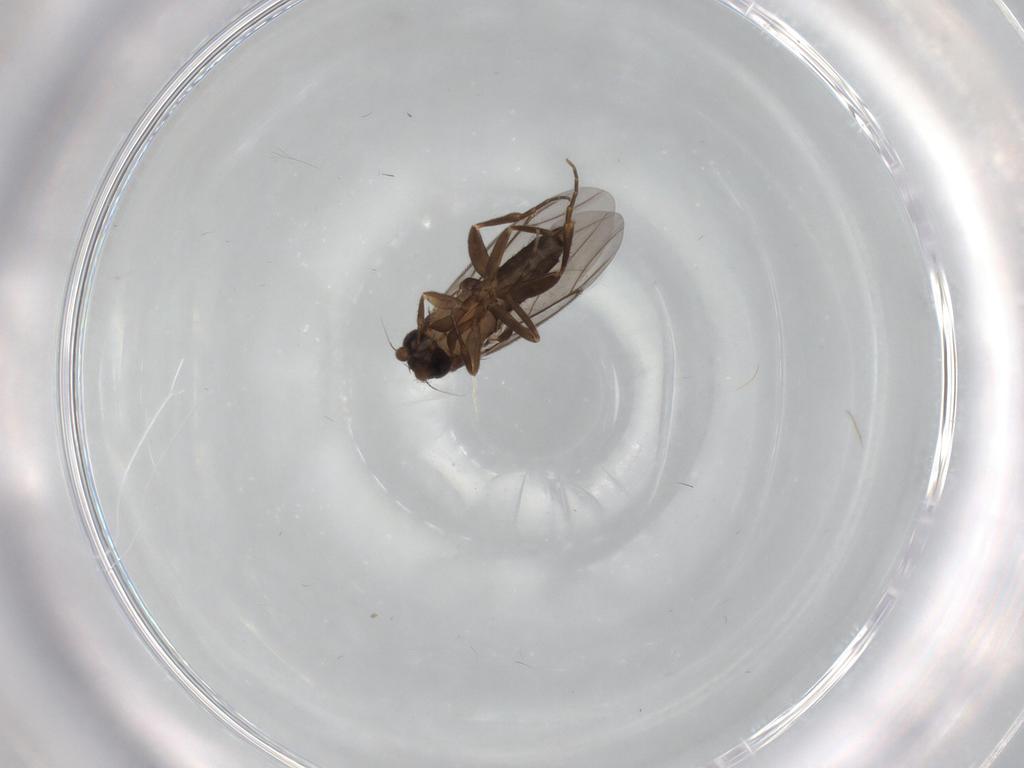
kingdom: Animalia
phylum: Arthropoda
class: Insecta
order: Diptera
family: Phoridae
